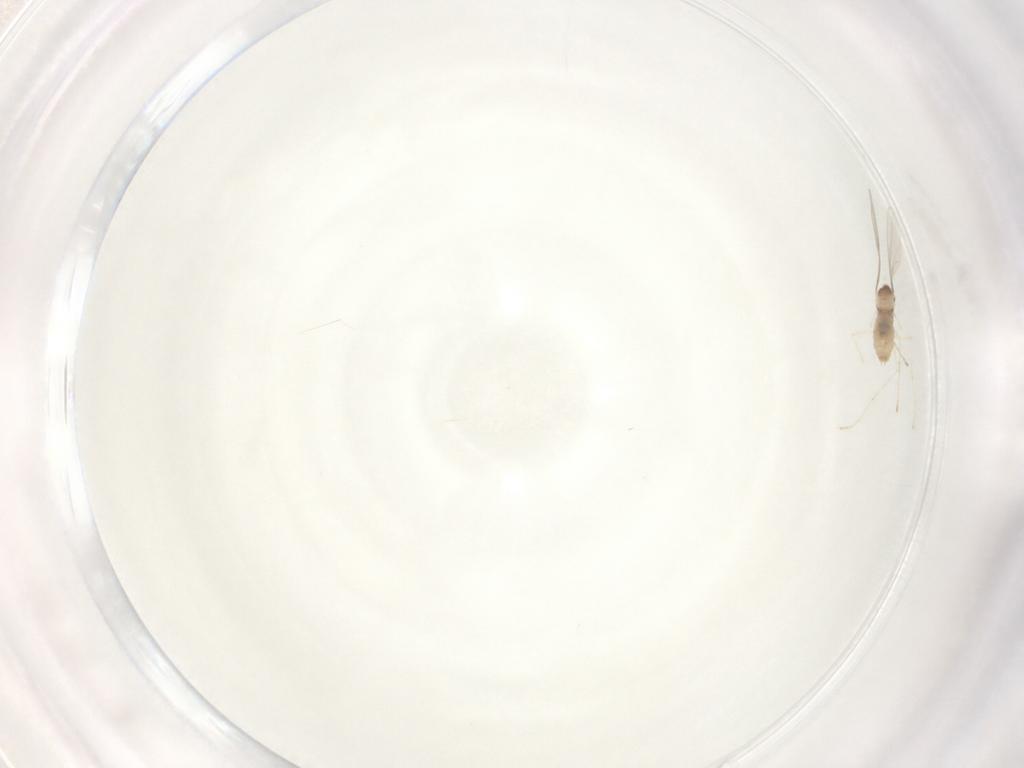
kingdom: Animalia
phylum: Arthropoda
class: Insecta
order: Diptera
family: Cecidomyiidae
